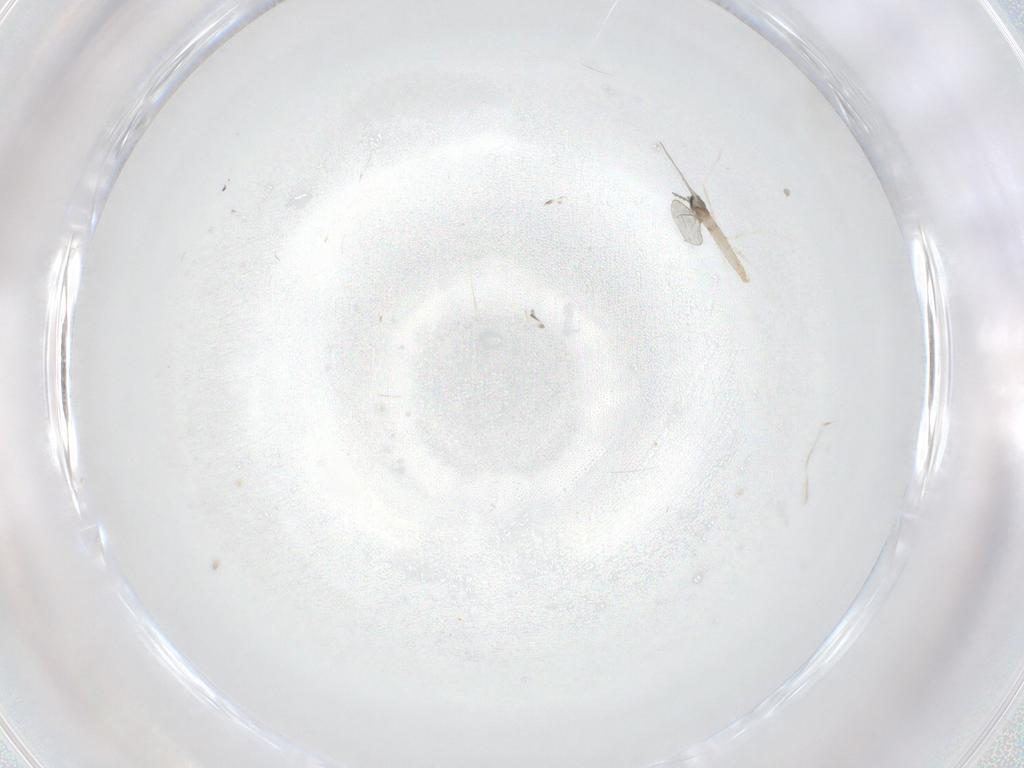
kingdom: Animalia
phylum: Arthropoda
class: Insecta
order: Diptera
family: Cecidomyiidae
